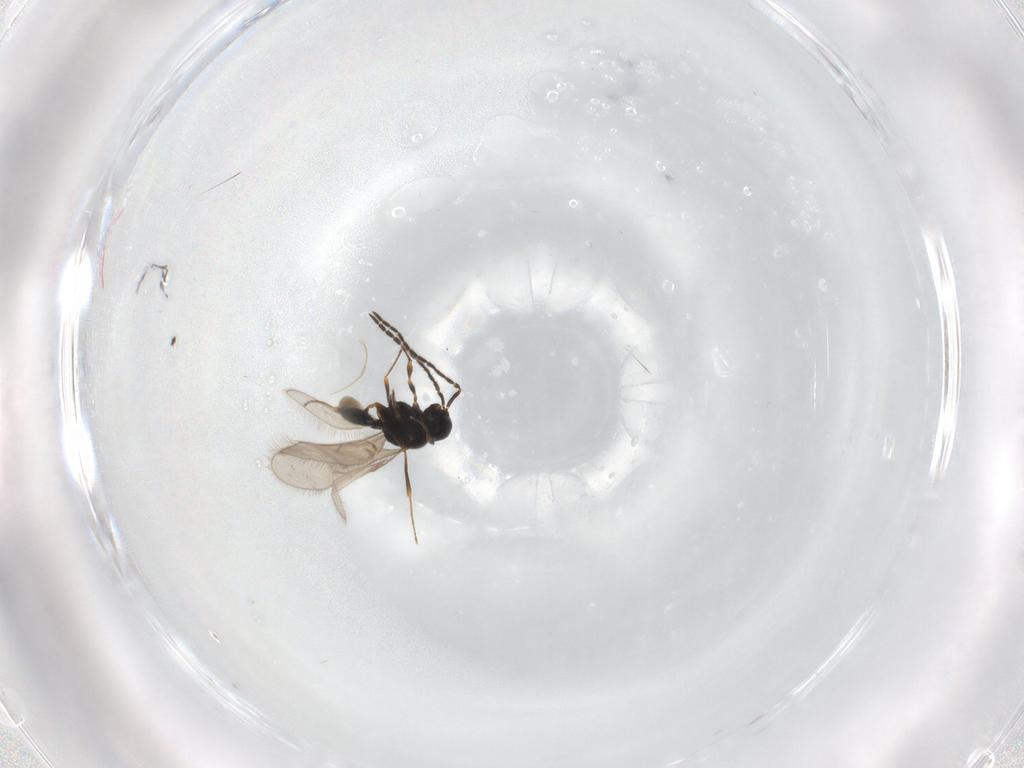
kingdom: Animalia
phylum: Arthropoda
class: Insecta
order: Hymenoptera
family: Scelionidae
